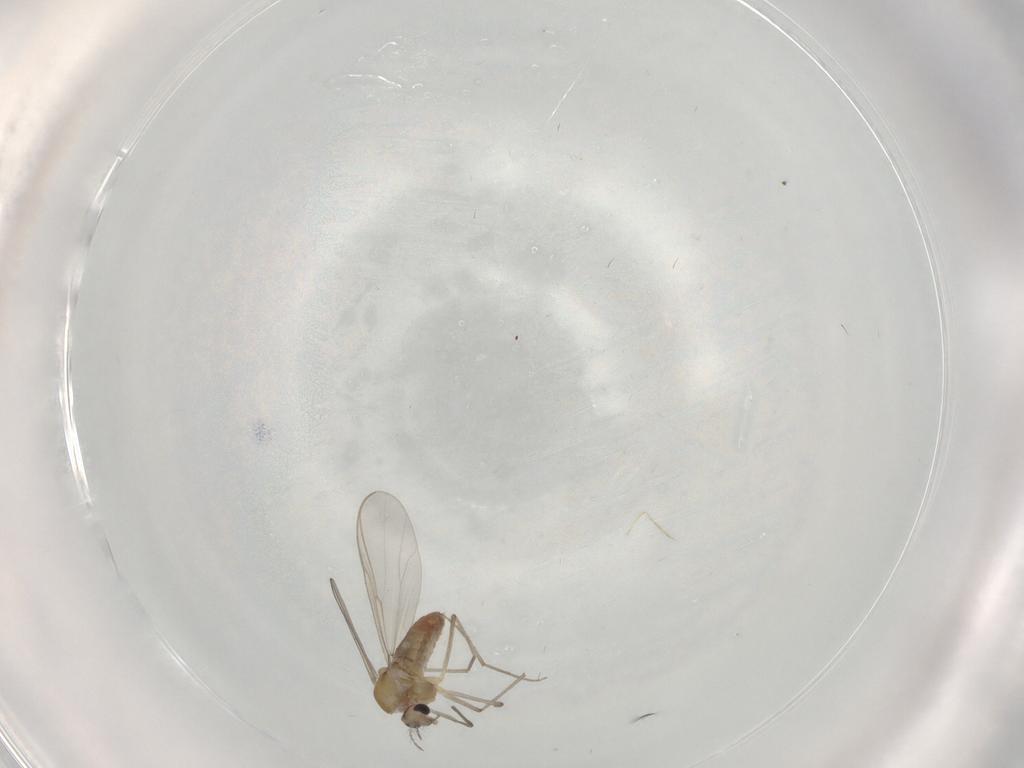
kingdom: Animalia
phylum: Arthropoda
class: Insecta
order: Diptera
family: Chironomidae
